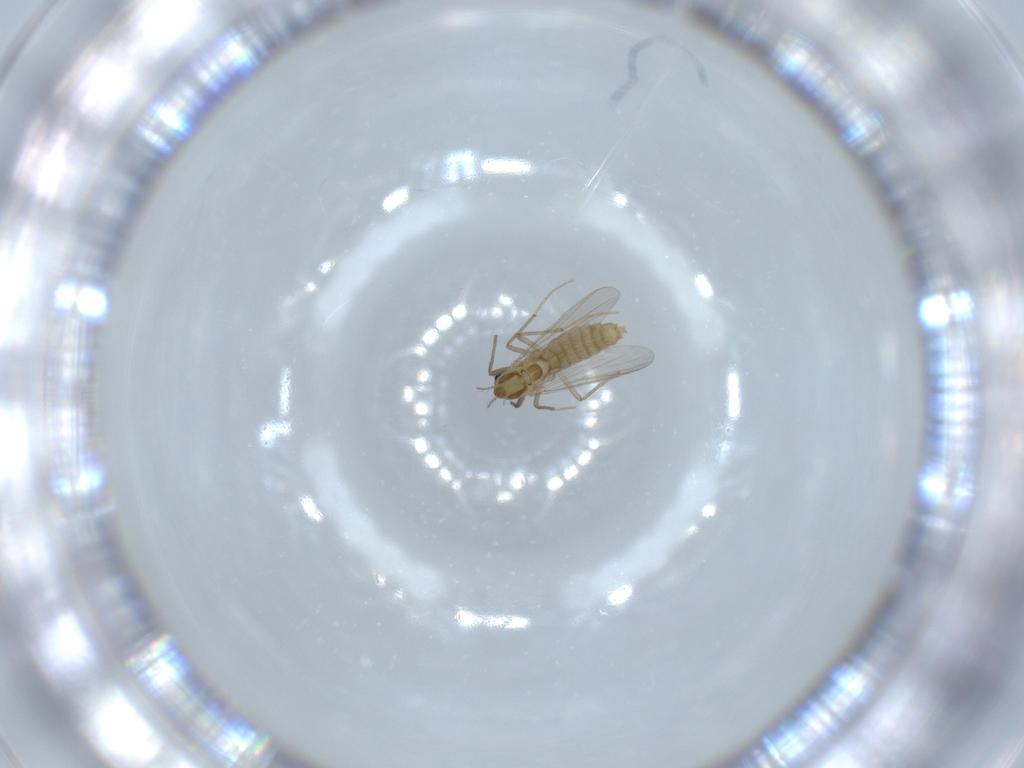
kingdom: Animalia
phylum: Arthropoda
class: Insecta
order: Diptera
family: Chironomidae
